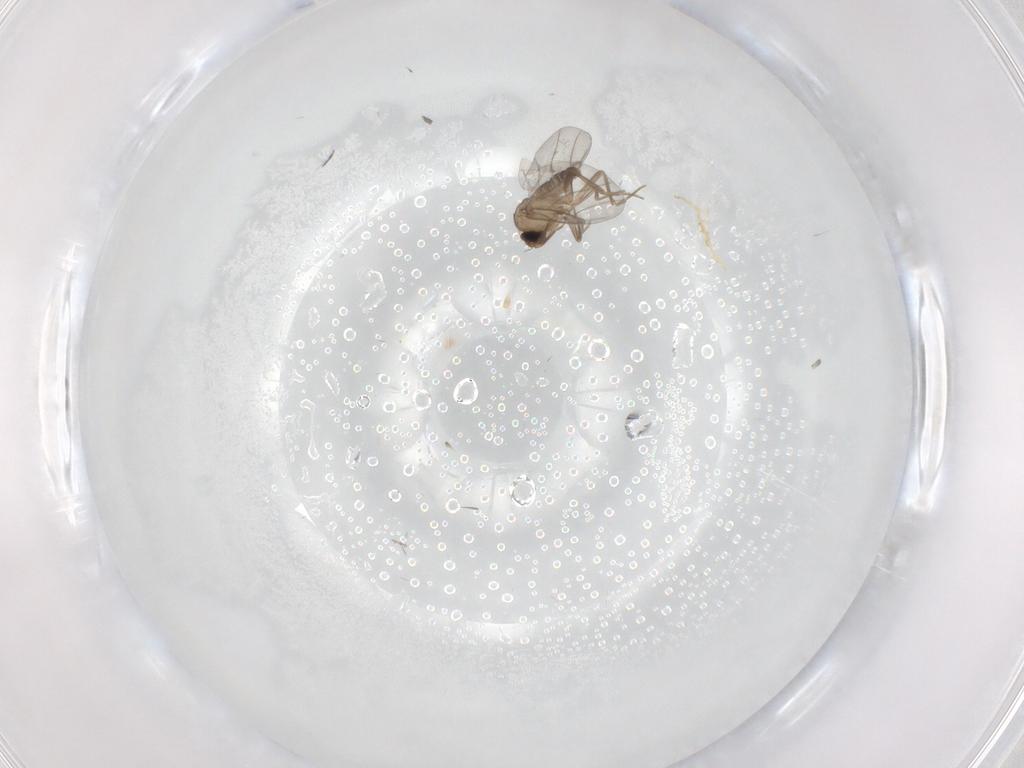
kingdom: Animalia
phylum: Arthropoda
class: Insecta
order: Diptera
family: Cecidomyiidae
